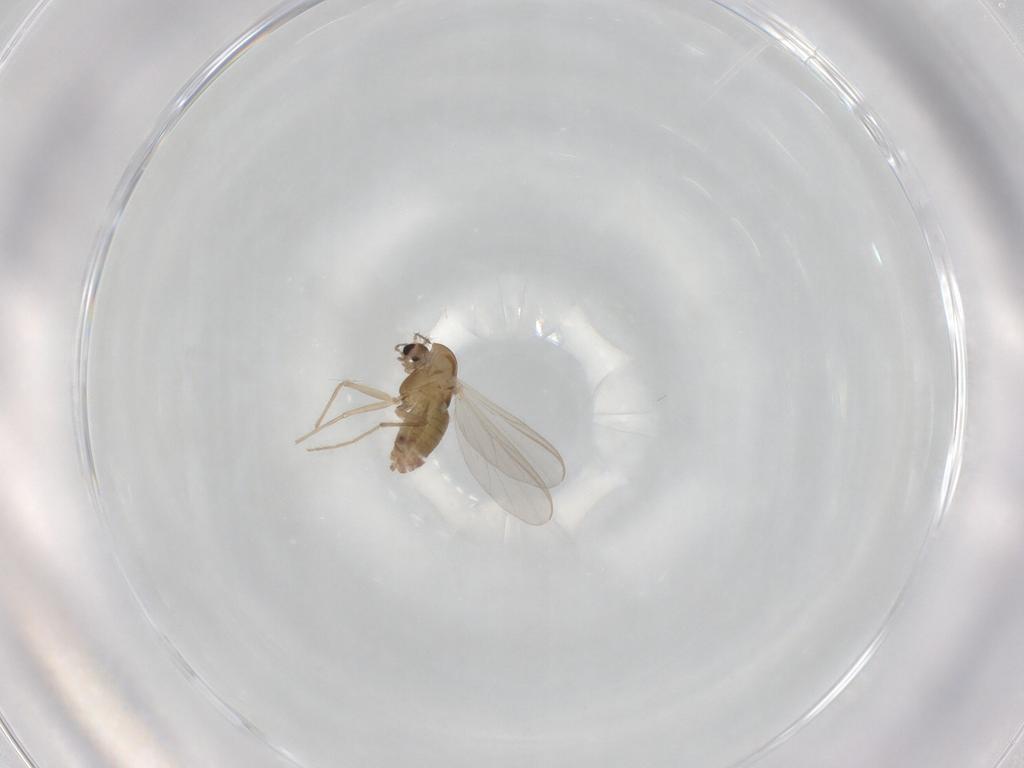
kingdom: Animalia
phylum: Arthropoda
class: Insecta
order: Diptera
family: Chironomidae
